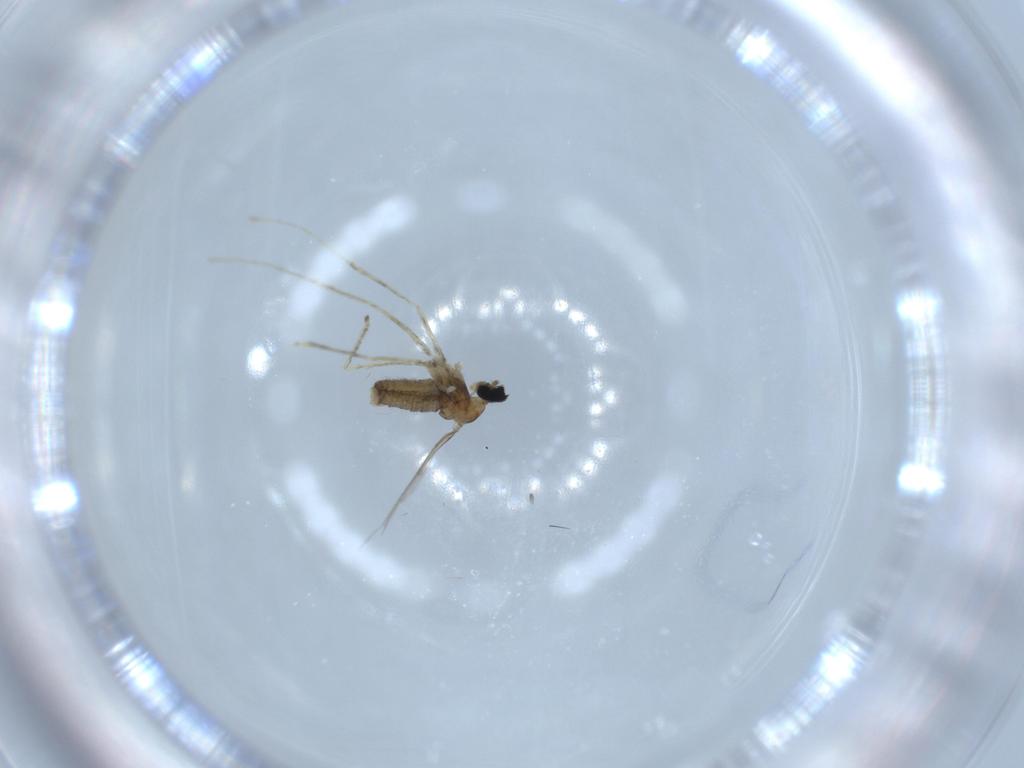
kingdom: Animalia
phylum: Arthropoda
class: Insecta
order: Diptera
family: Cecidomyiidae
